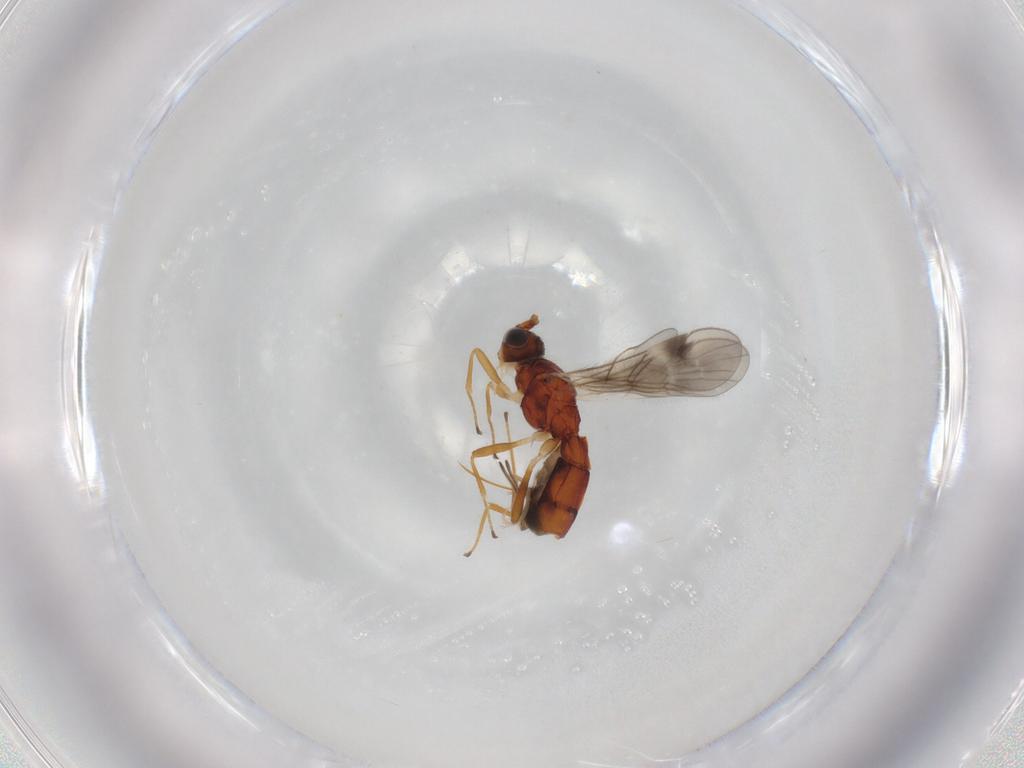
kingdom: Animalia
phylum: Arthropoda
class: Insecta
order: Hymenoptera
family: Braconidae
